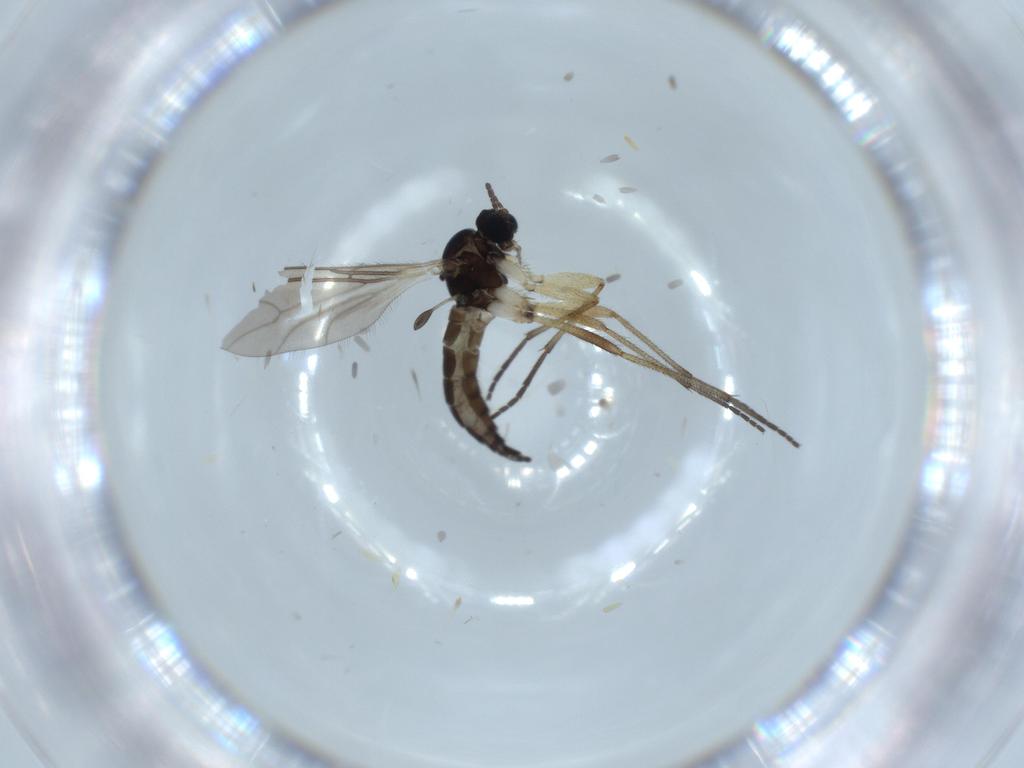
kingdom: Animalia
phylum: Arthropoda
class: Insecta
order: Diptera
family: Sciaridae
